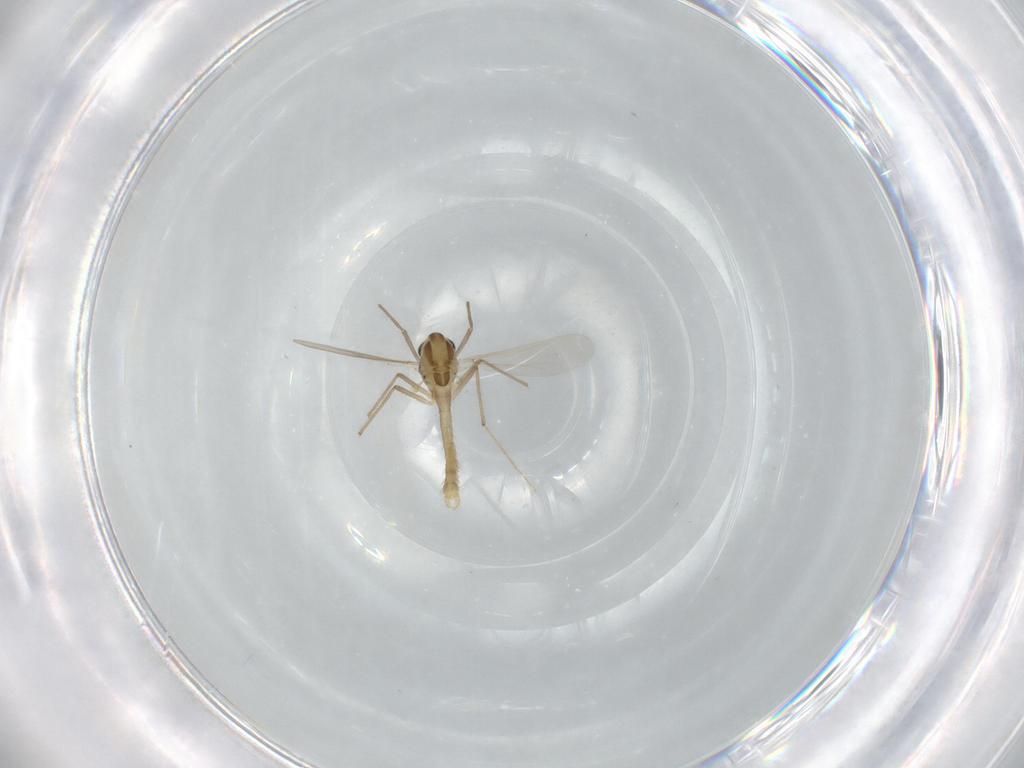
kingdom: Animalia
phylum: Arthropoda
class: Insecta
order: Diptera
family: Chironomidae
